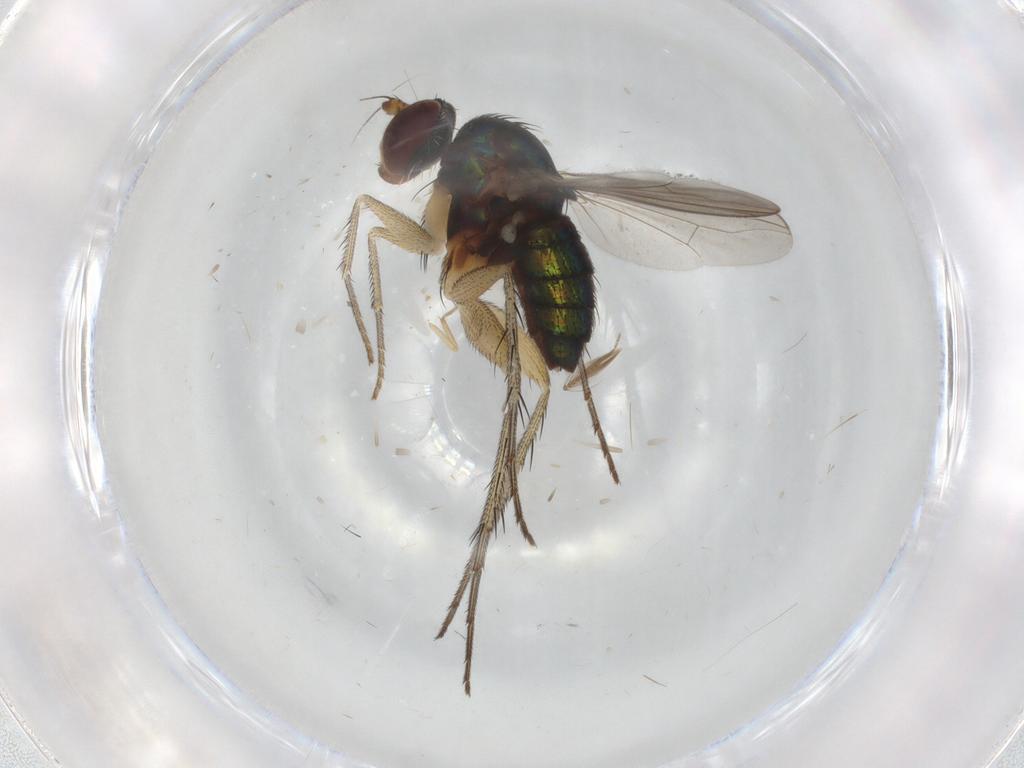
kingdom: Animalia
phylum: Arthropoda
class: Insecta
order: Diptera
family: Dolichopodidae
